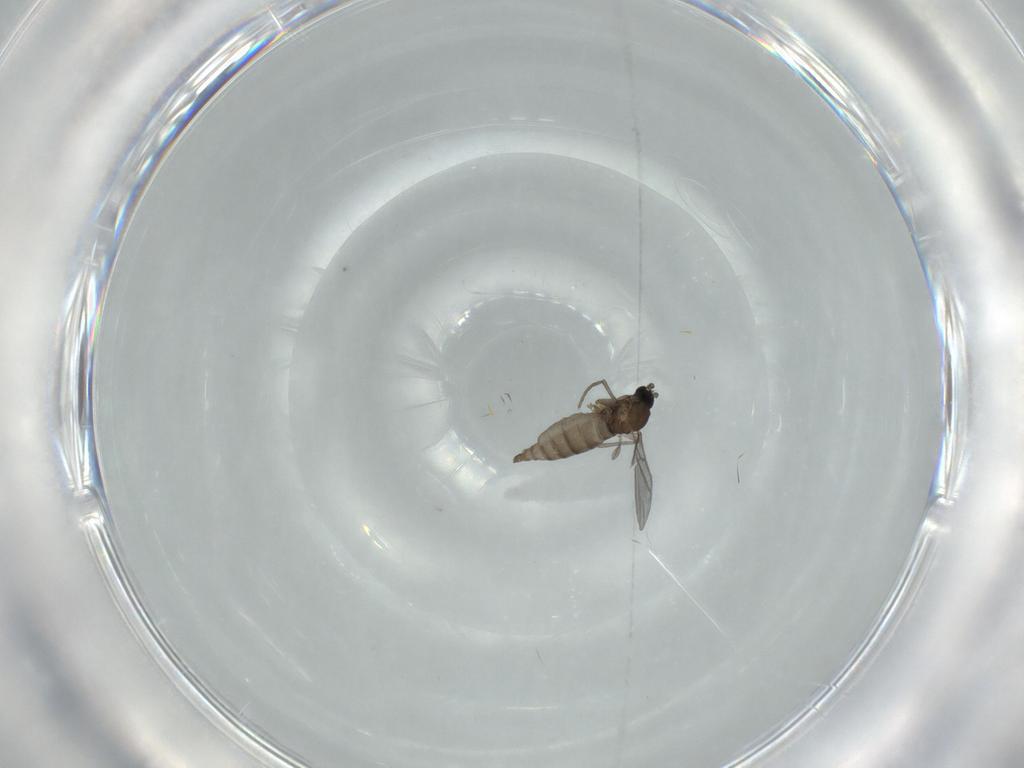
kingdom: Animalia
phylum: Arthropoda
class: Insecta
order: Diptera
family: Sciaridae
